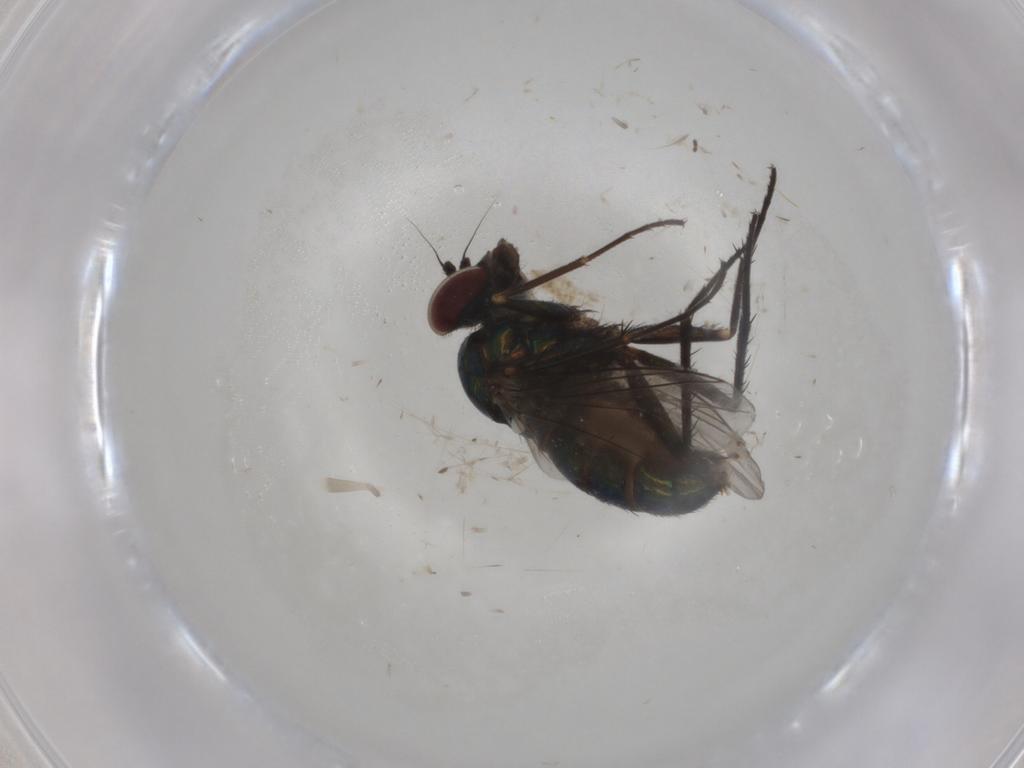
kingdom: Animalia
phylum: Arthropoda
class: Insecta
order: Diptera
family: Dolichopodidae
